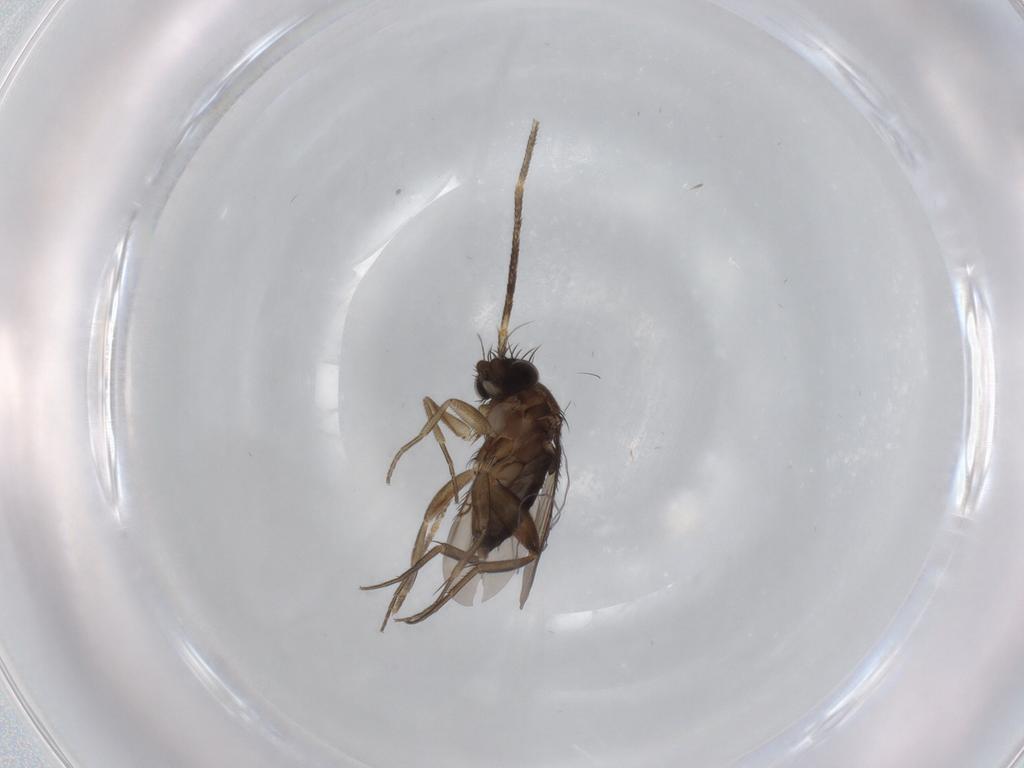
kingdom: Animalia
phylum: Arthropoda
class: Insecta
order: Diptera
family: Phoridae
